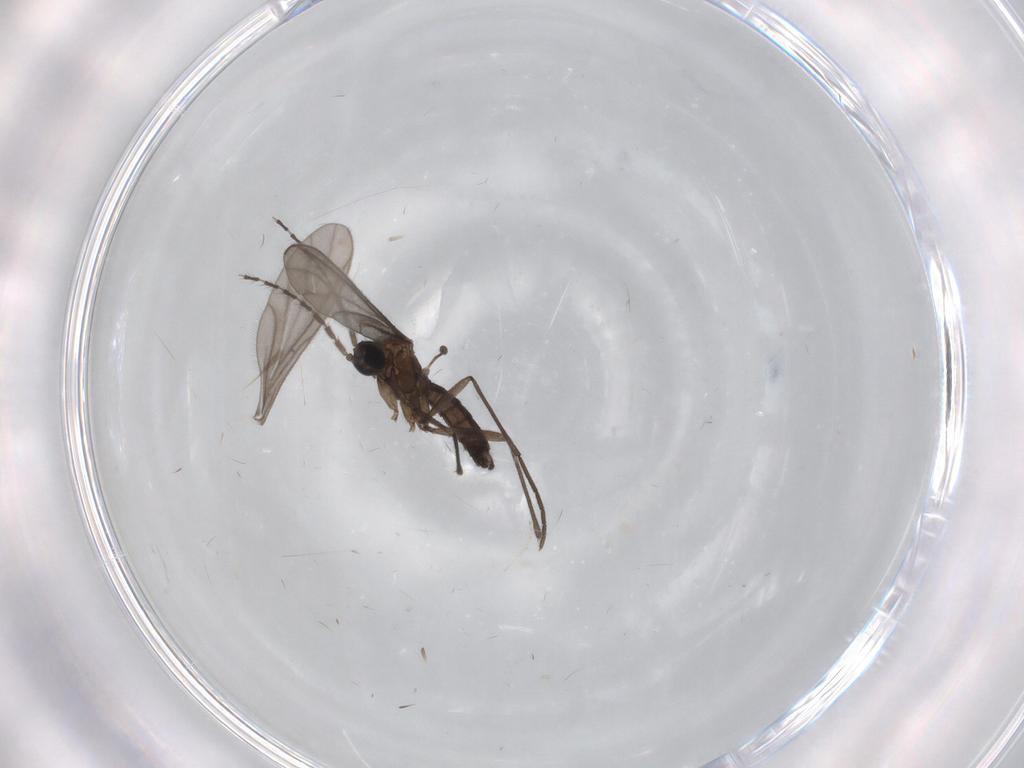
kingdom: Animalia
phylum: Arthropoda
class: Insecta
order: Diptera
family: Sciaridae
